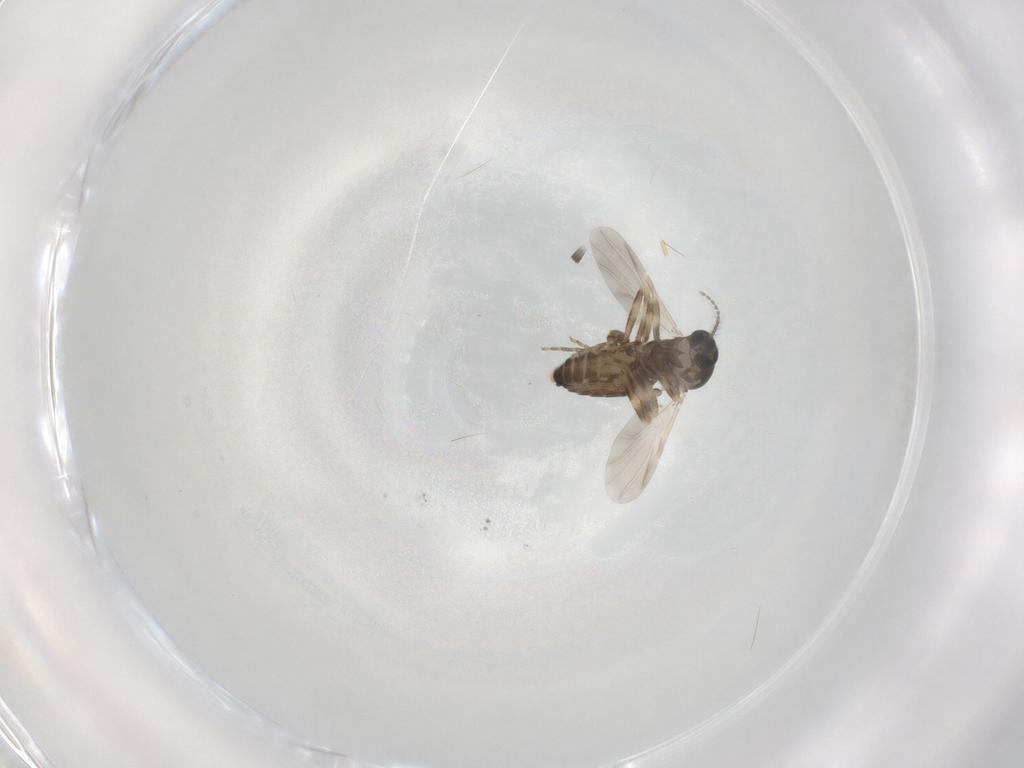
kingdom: Animalia
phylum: Arthropoda
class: Insecta
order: Diptera
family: Ceratopogonidae
